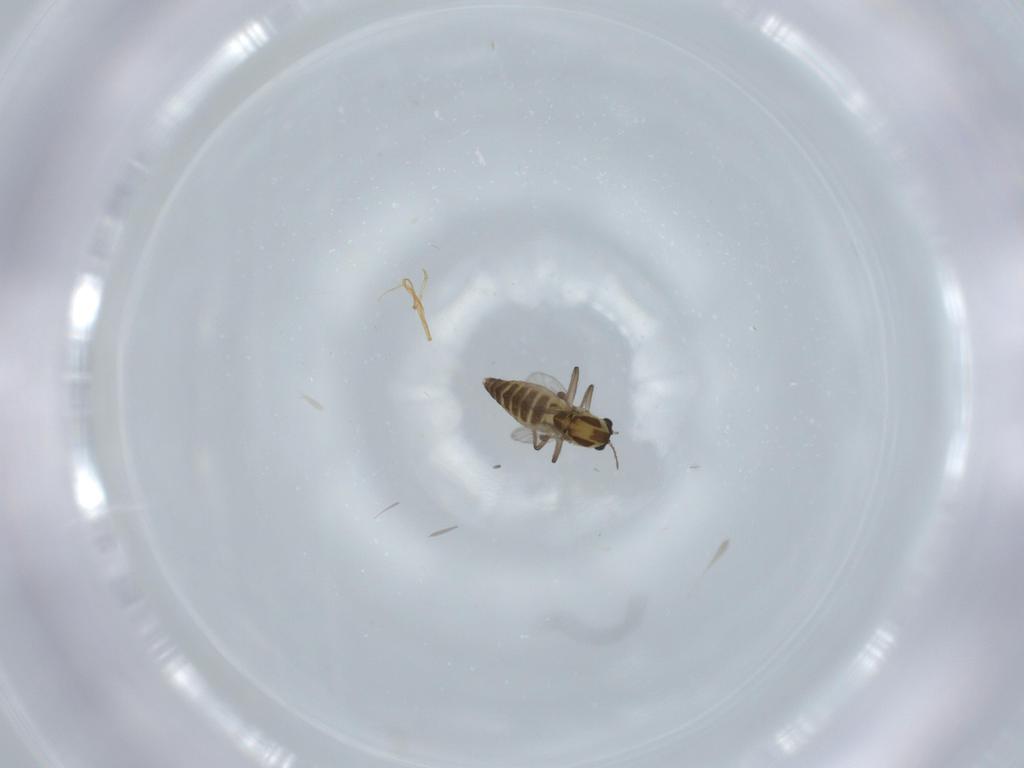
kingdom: Animalia
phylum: Arthropoda
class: Insecta
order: Diptera
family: Chironomidae
